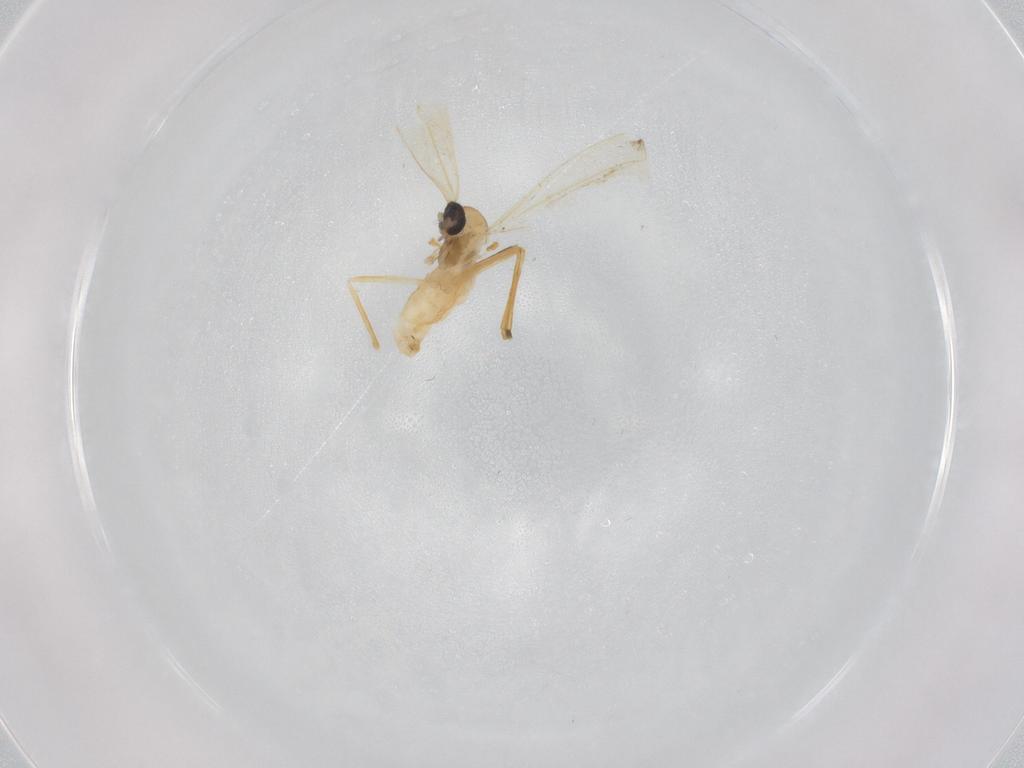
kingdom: Animalia
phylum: Arthropoda
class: Insecta
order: Diptera
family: Cecidomyiidae
